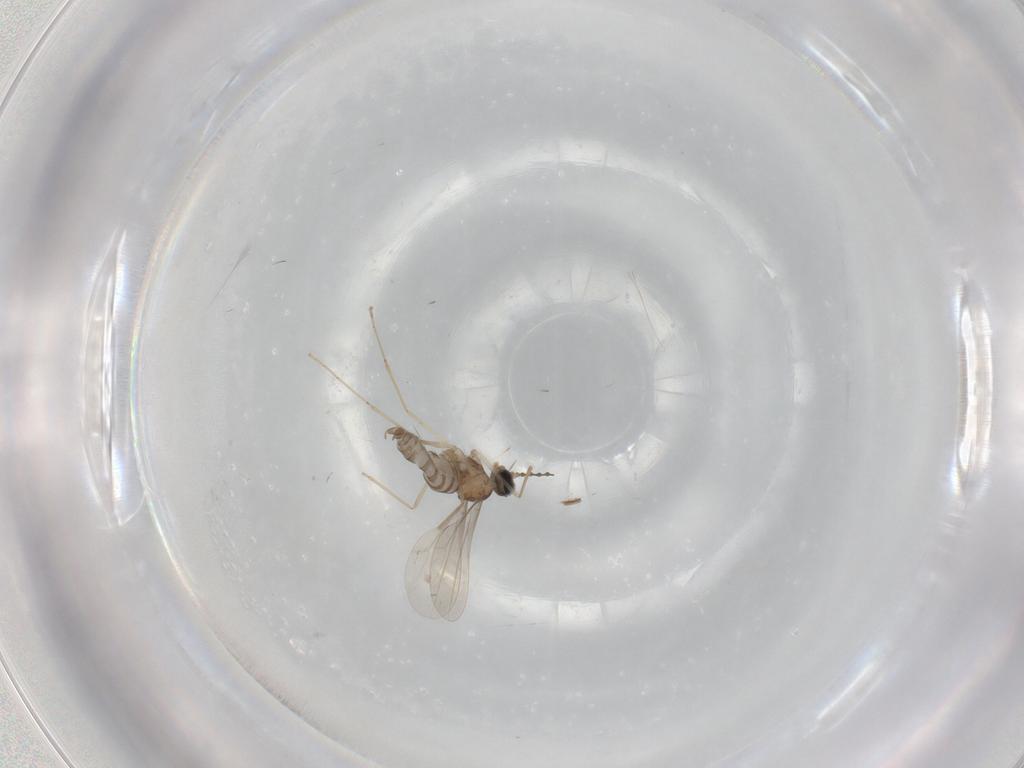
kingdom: Animalia
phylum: Arthropoda
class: Insecta
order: Diptera
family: Cecidomyiidae
